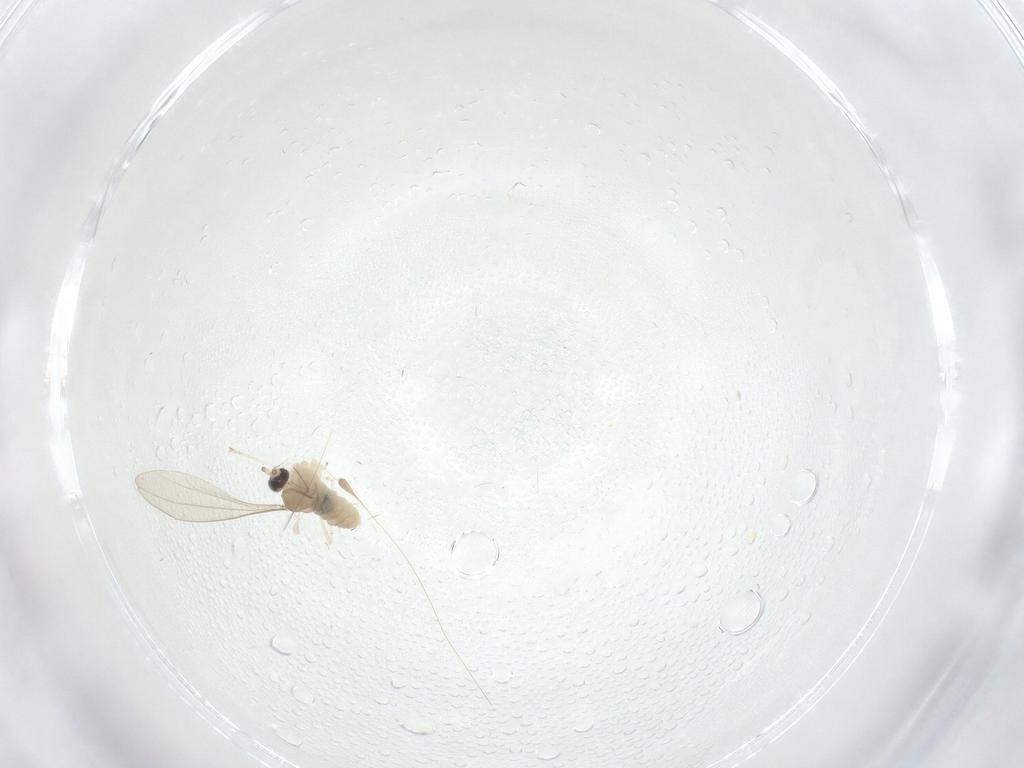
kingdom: Animalia
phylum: Arthropoda
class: Insecta
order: Diptera
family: Cecidomyiidae
